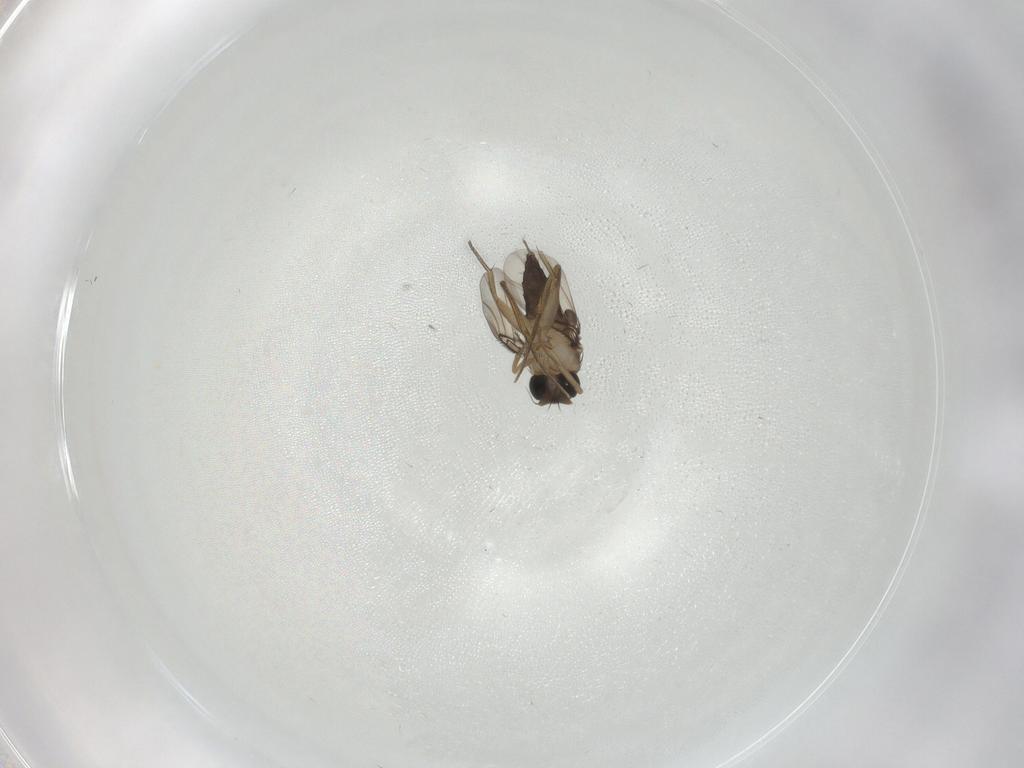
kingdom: Animalia
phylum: Arthropoda
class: Insecta
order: Diptera
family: Phoridae
